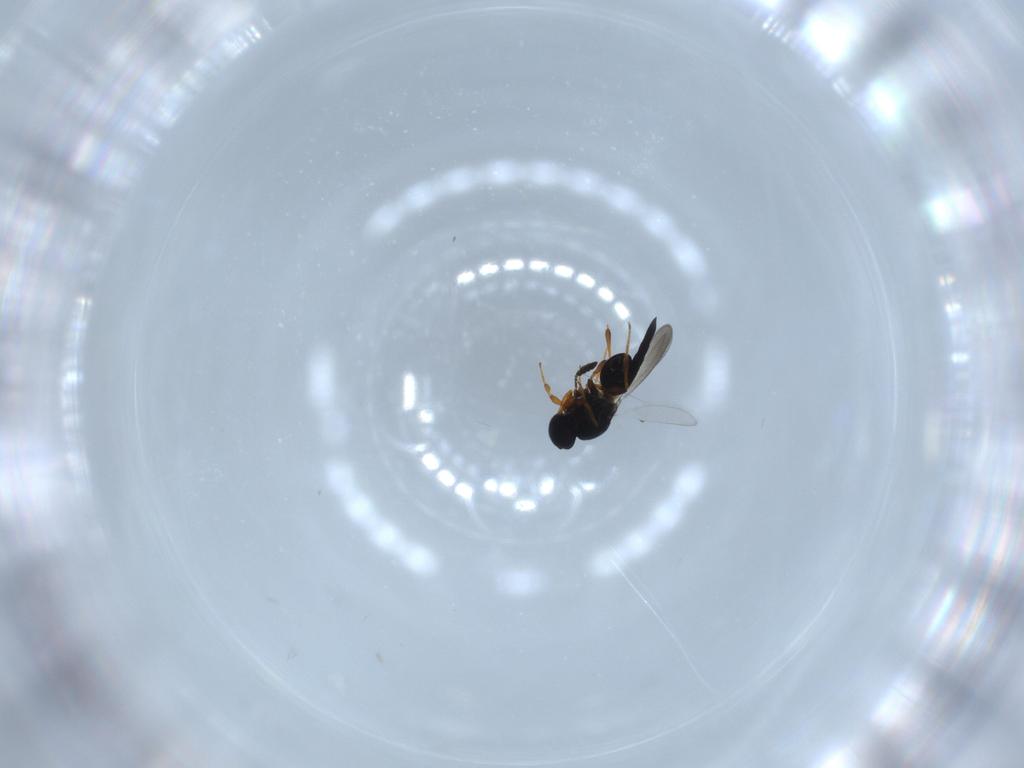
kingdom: Animalia
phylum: Arthropoda
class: Insecta
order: Hymenoptera
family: Platygastridae
